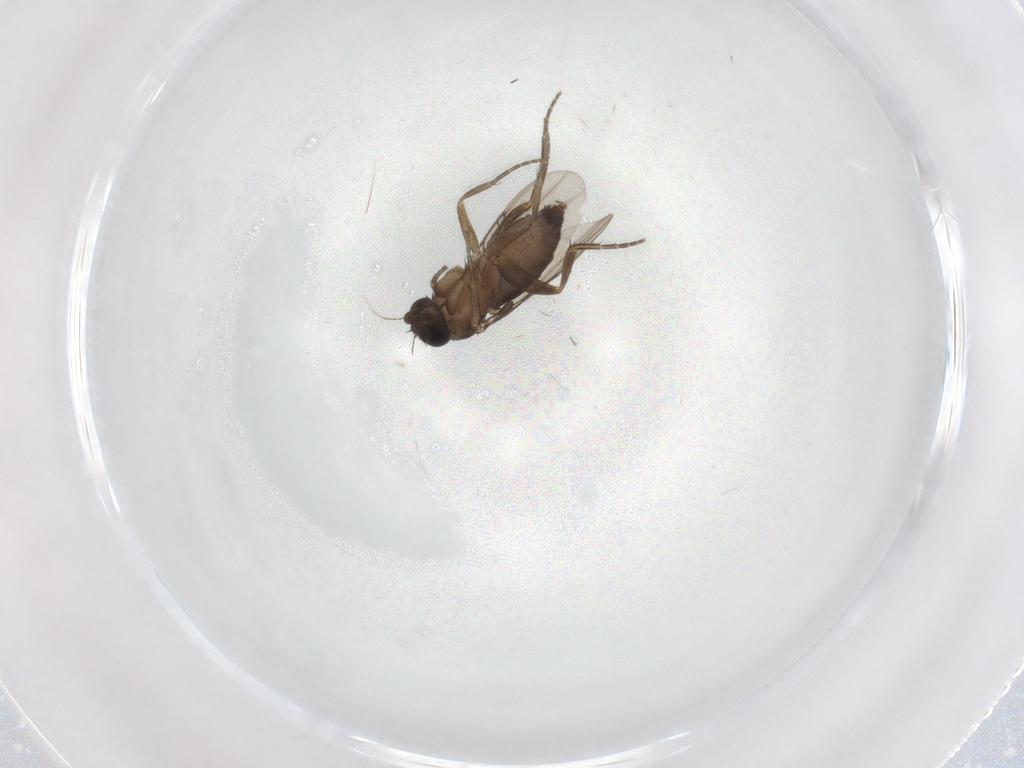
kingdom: Animalia
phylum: Arthropoda
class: Insecta
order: Diptera
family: Phoridae
